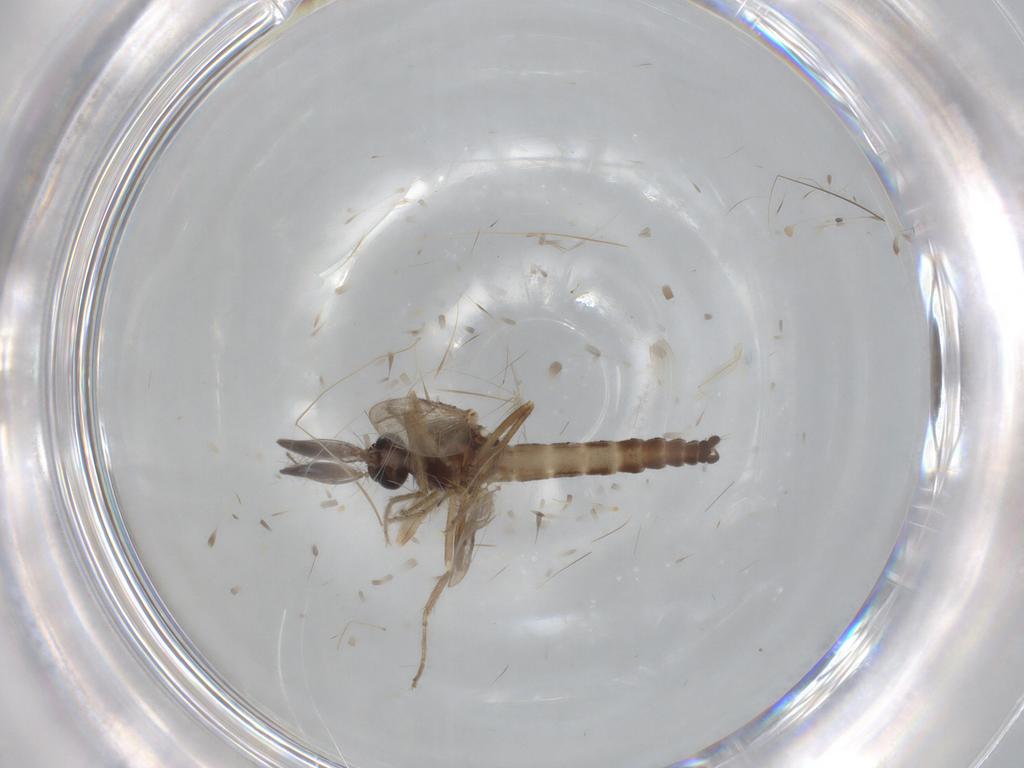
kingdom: Animalia
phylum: Arthropoda
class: Insecta
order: Diptera
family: Ceratopogonidae
